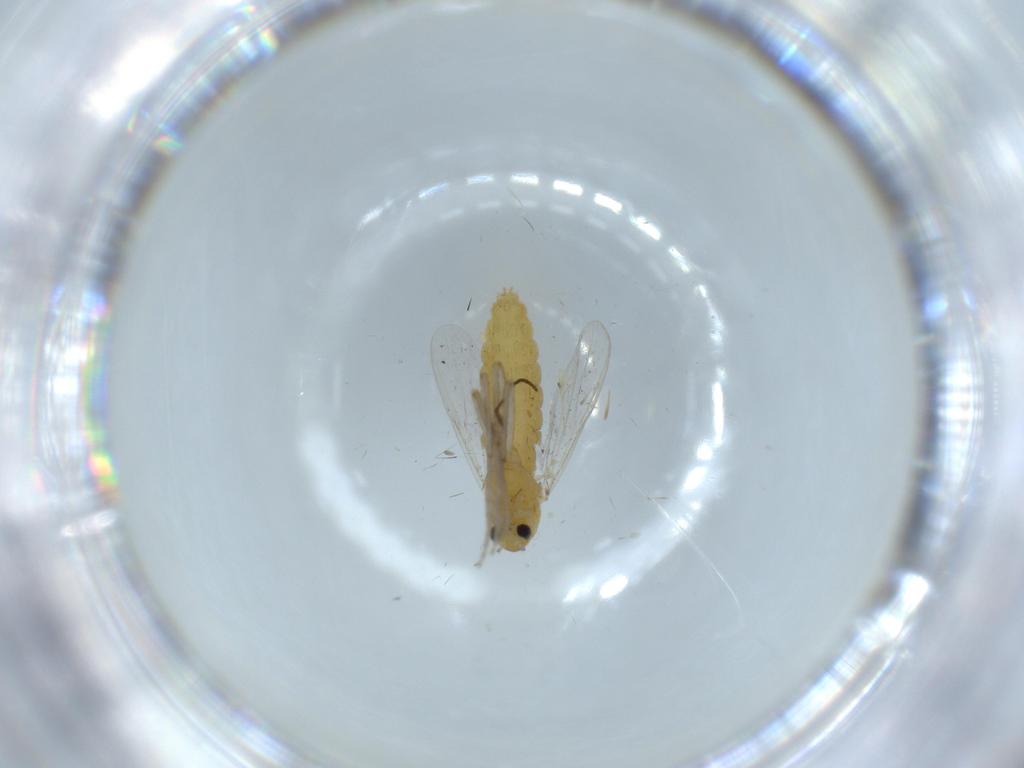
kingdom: Animalia
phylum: Arthropoda
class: Insecta
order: Diptera
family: Chironomidae
